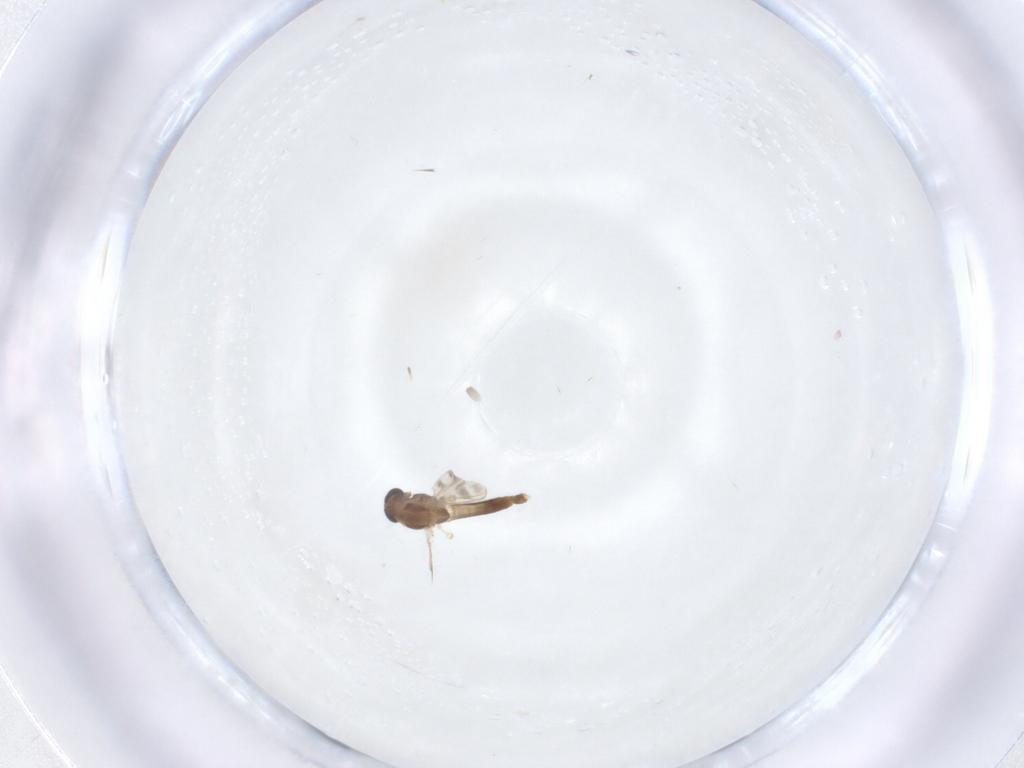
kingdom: Animalia
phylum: Arthropoda
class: Insecta
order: Diptera
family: Chironomidae
